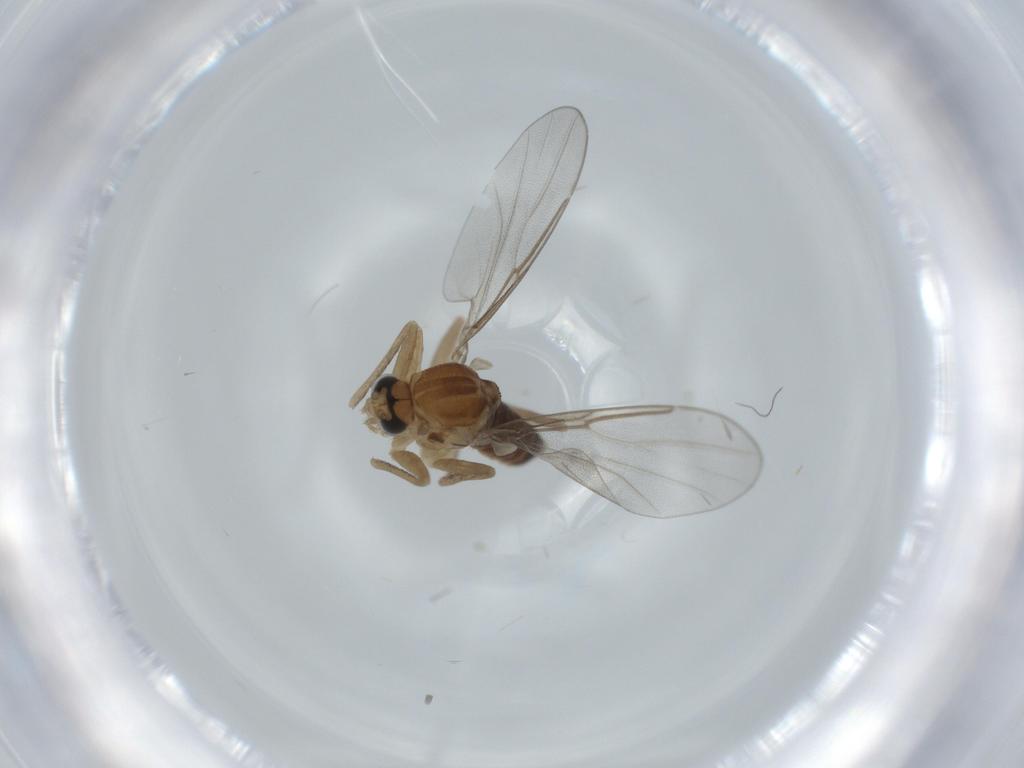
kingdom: Animalia
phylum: Arthropoda
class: Insecta
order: Diptera
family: Cecidomyiidae
